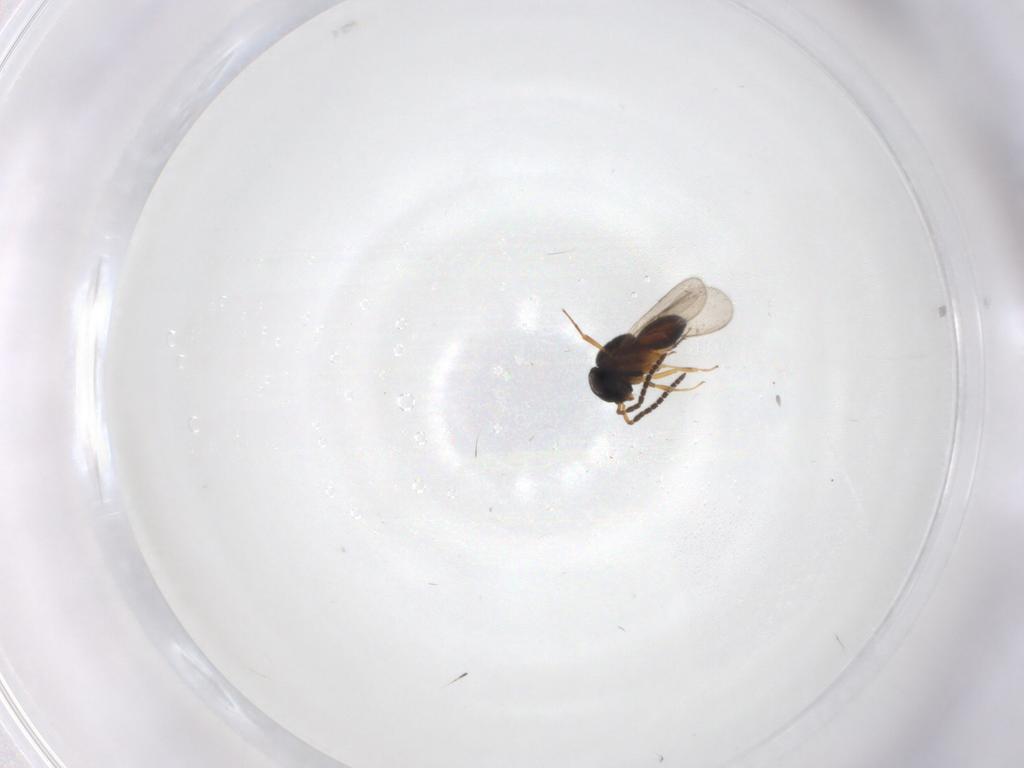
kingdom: Animalia
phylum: Arthropoda
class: Insecta
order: Hymenoptera
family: Scelionidae
